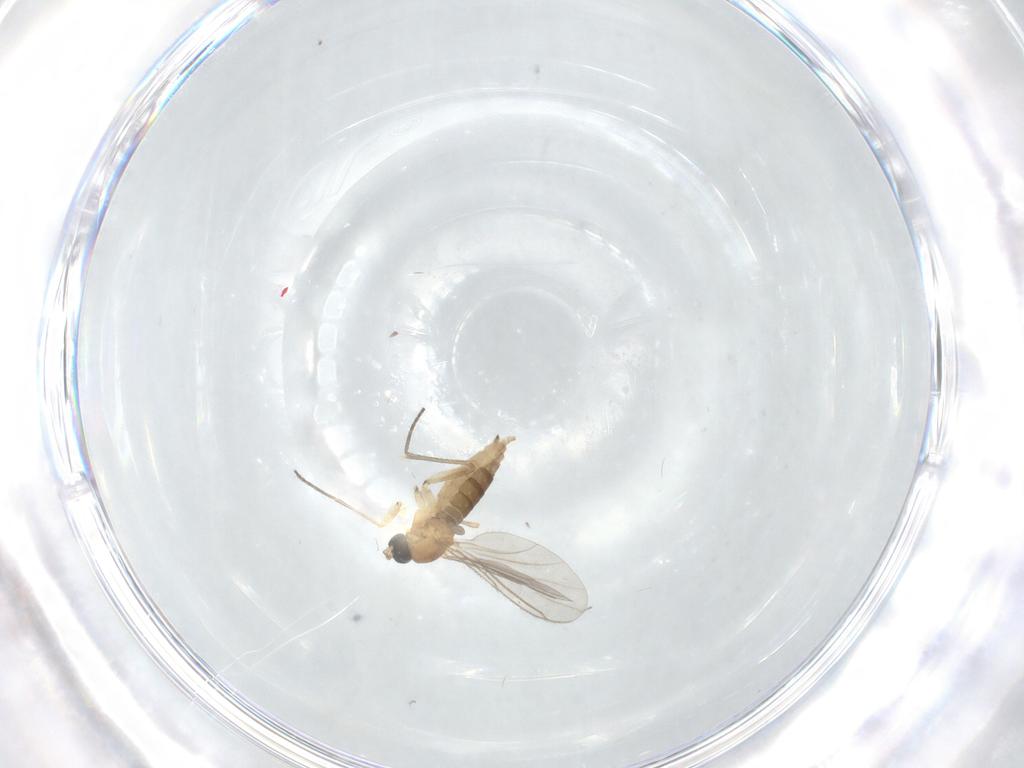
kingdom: Animalia
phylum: Arthropoda
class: Insecta
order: Diptera
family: Sciaridae
